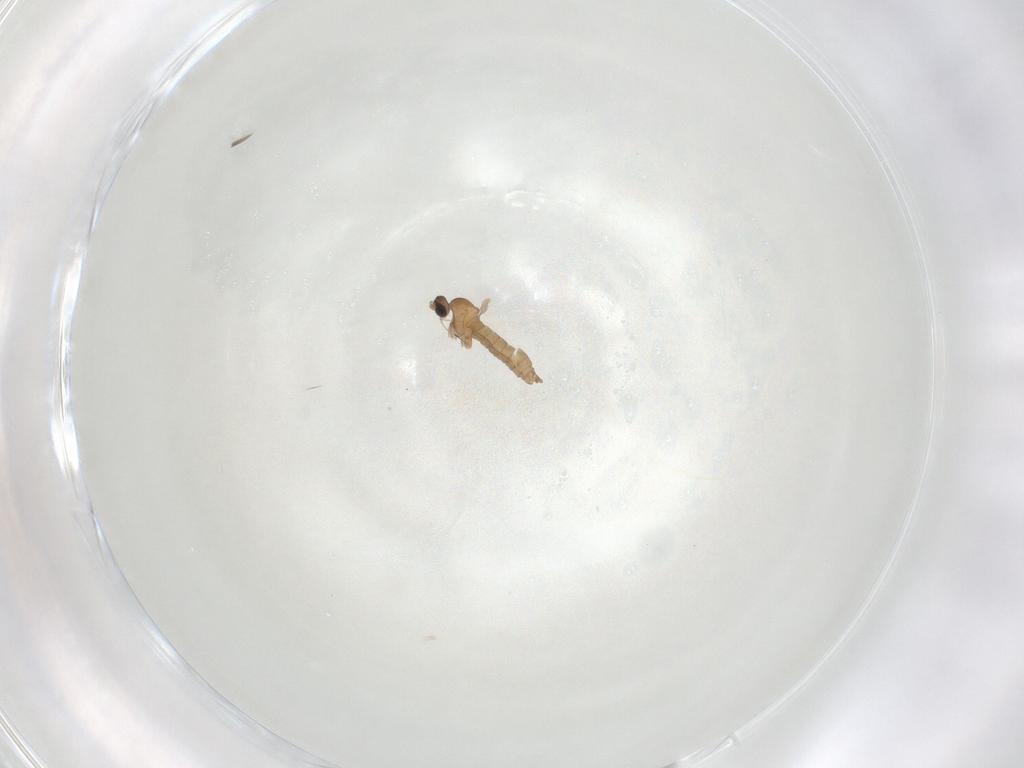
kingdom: Animalia
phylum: Arthropoda
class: Insecta
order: Diptera
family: Cecidomyiidae
